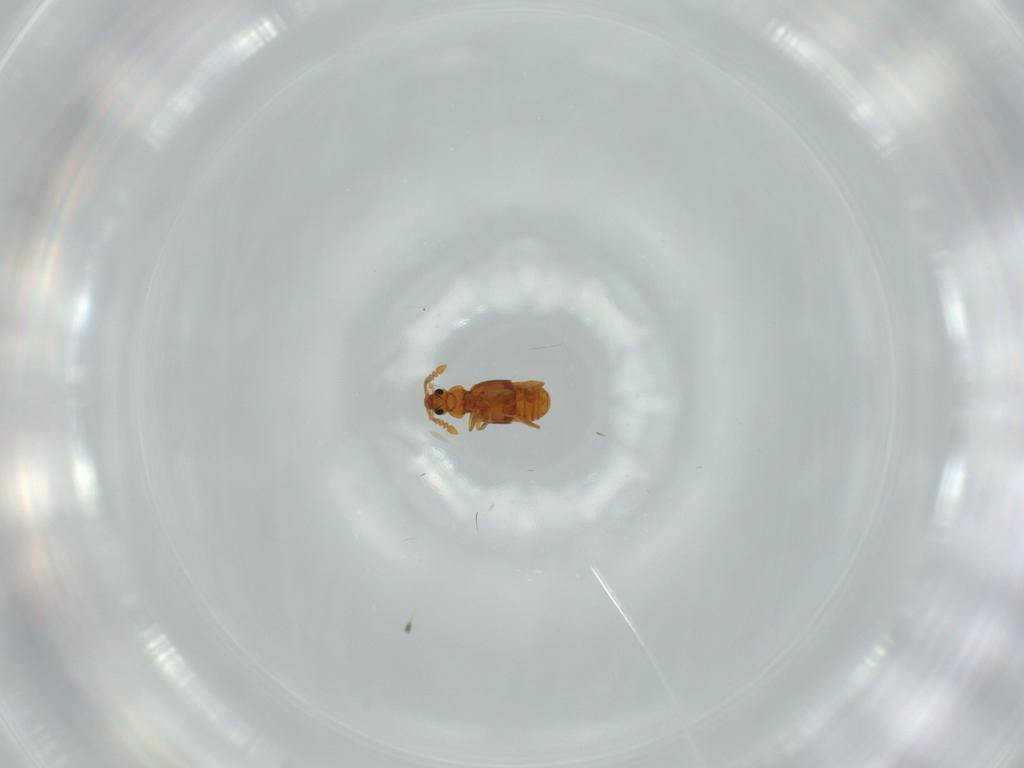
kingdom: Animalia
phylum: Arthropoda
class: Insecta
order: Coleoptera
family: Staphylinidae
